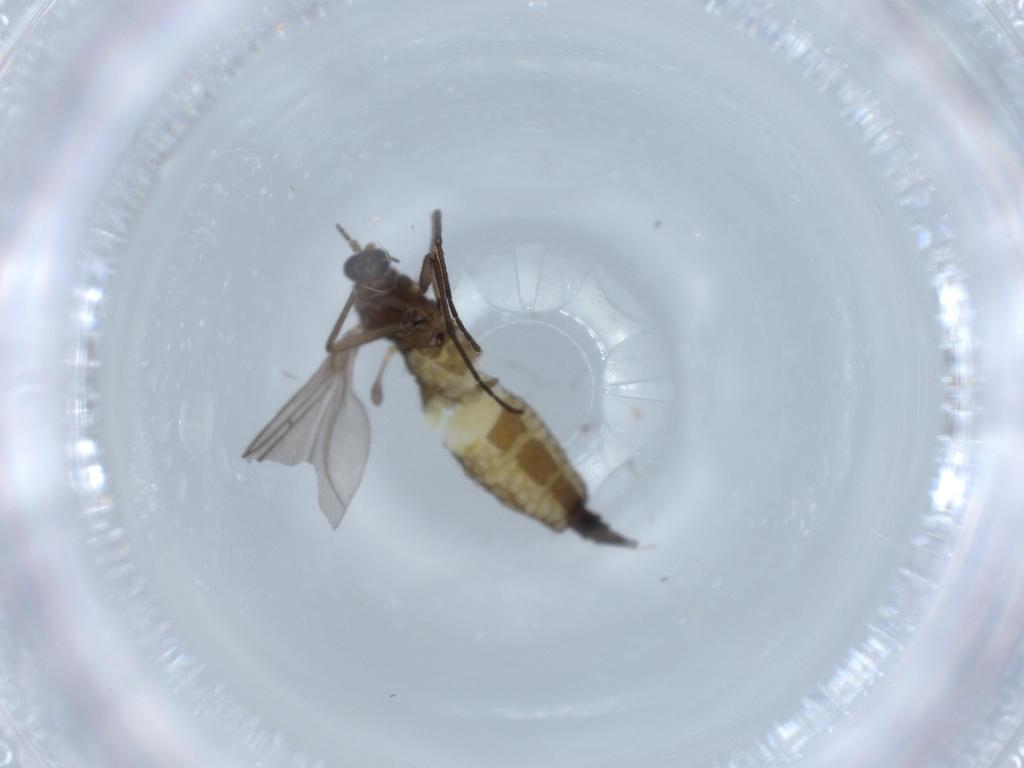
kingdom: Animalia
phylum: Arthropoda
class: Insecta
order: Diptera
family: Sciaridae
